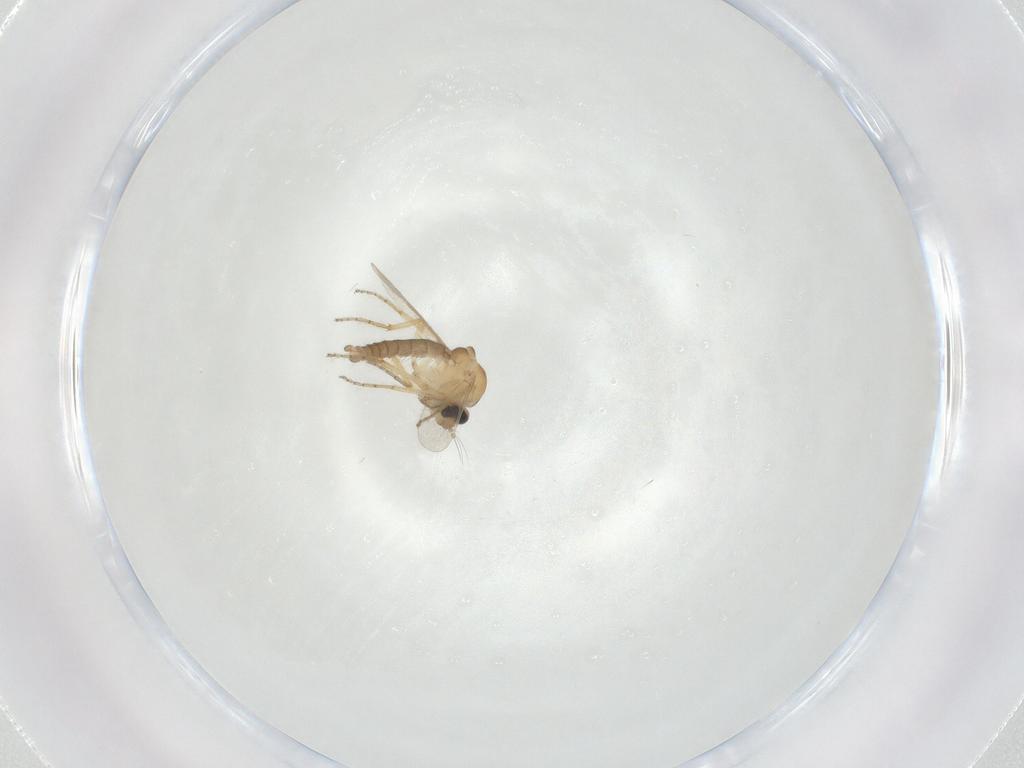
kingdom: Animalia
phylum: Arthropoda
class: Insecta
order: Diptera
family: Ceratopogonidae
